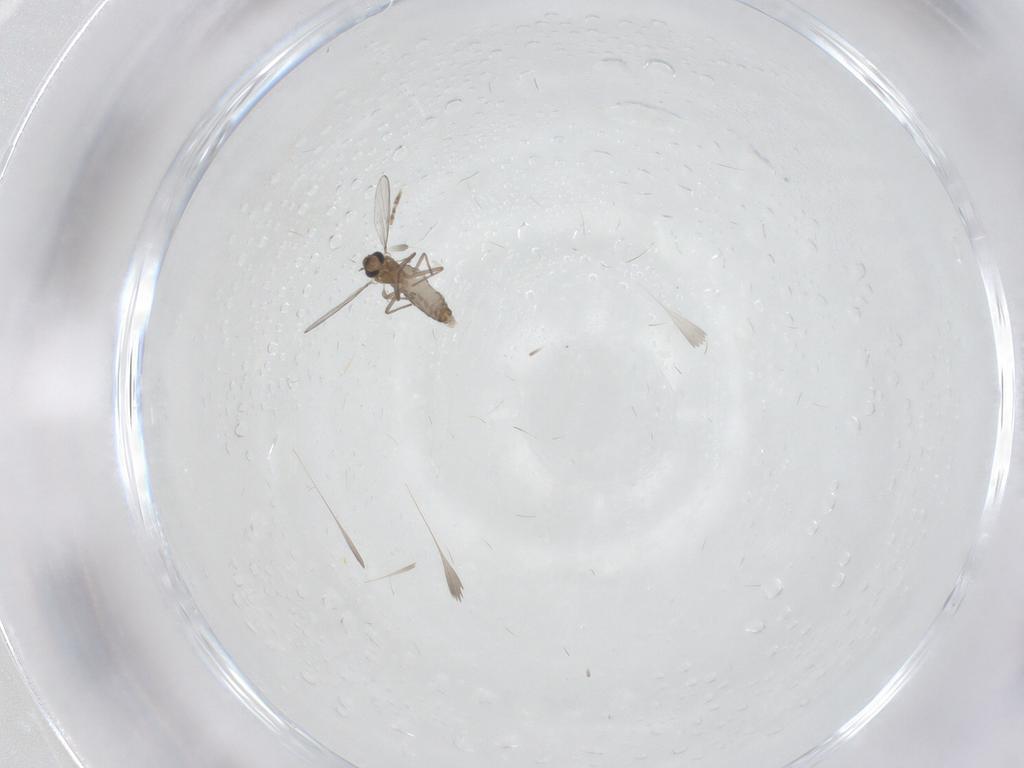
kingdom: Animalia
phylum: Arthropoda
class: Insecta
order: Diptera
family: Chironomidae
